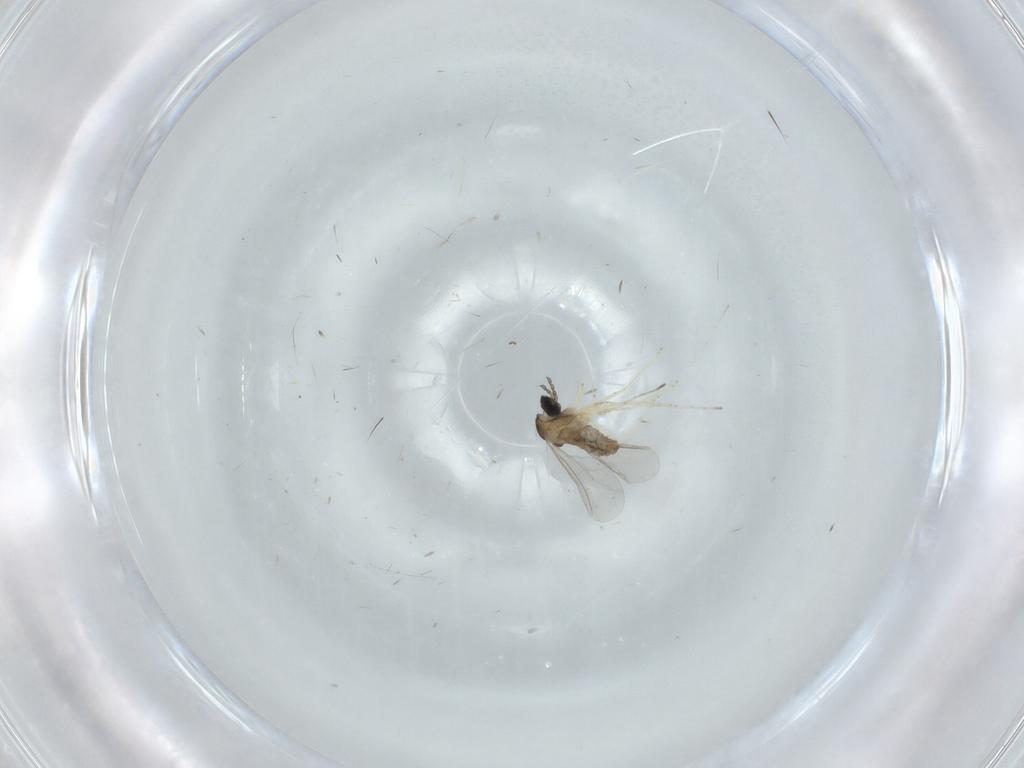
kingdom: Animalia
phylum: Arthropoda
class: Insecta
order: Diptera
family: Cecidomyiidae
